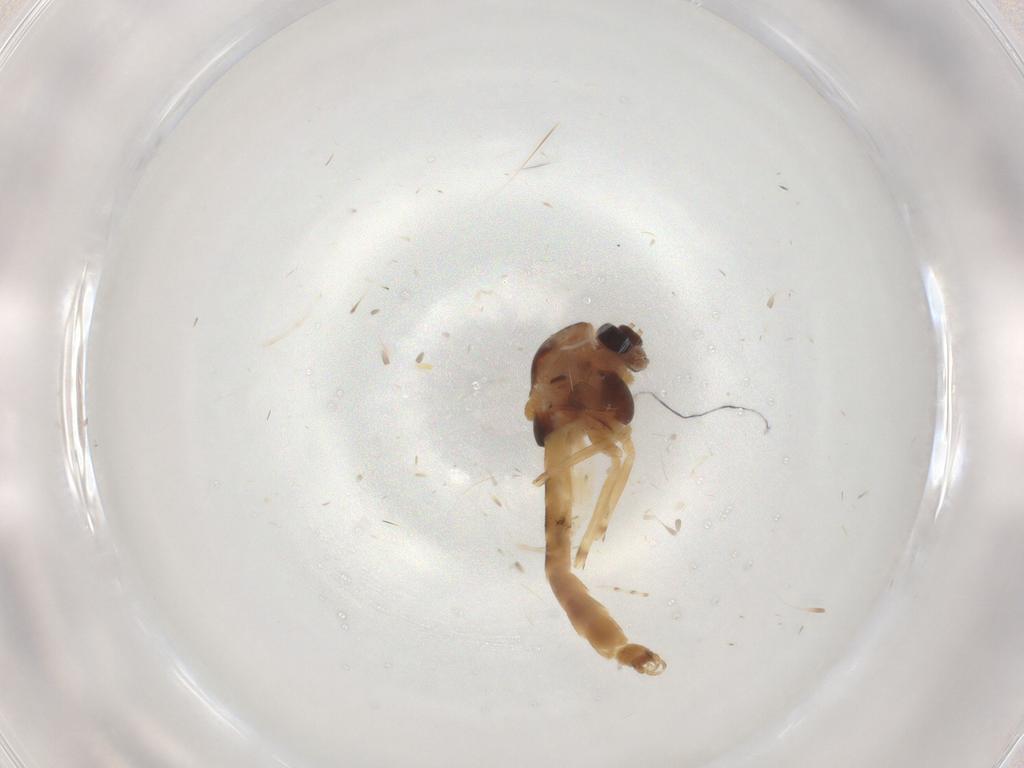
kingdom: Animalia
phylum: Arthropoda
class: Insecta
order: Diptera
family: Chironomidae
